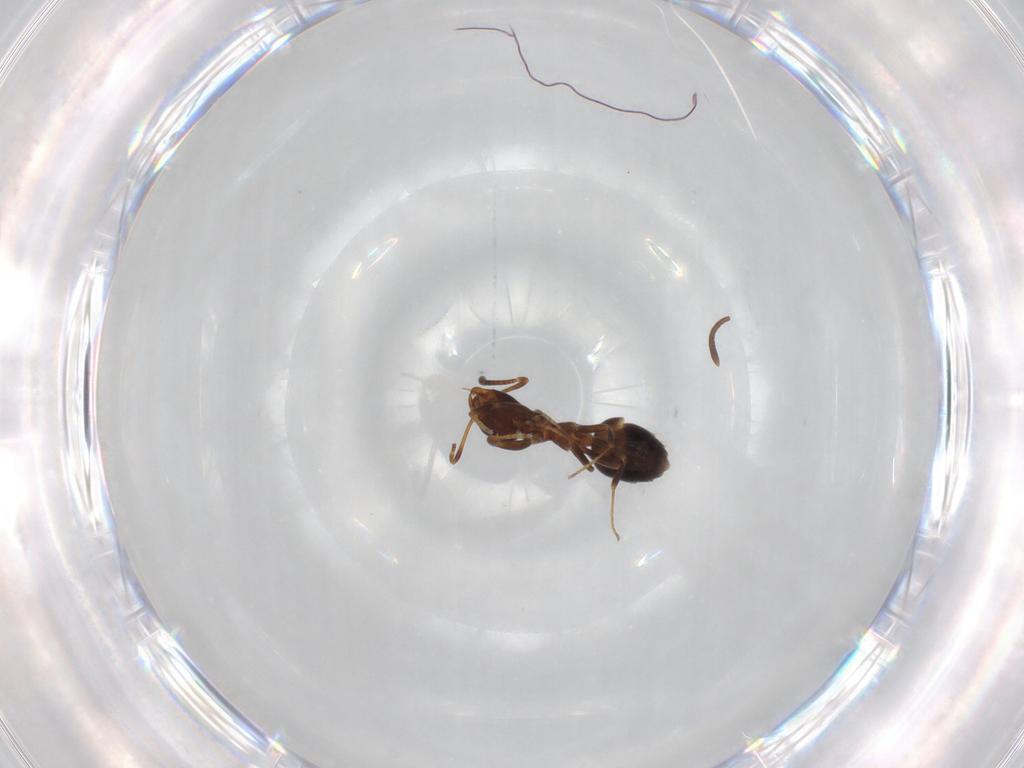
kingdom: Animalia
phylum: Arthropoda
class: Insecta
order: Hymenoptera
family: Formicidae
